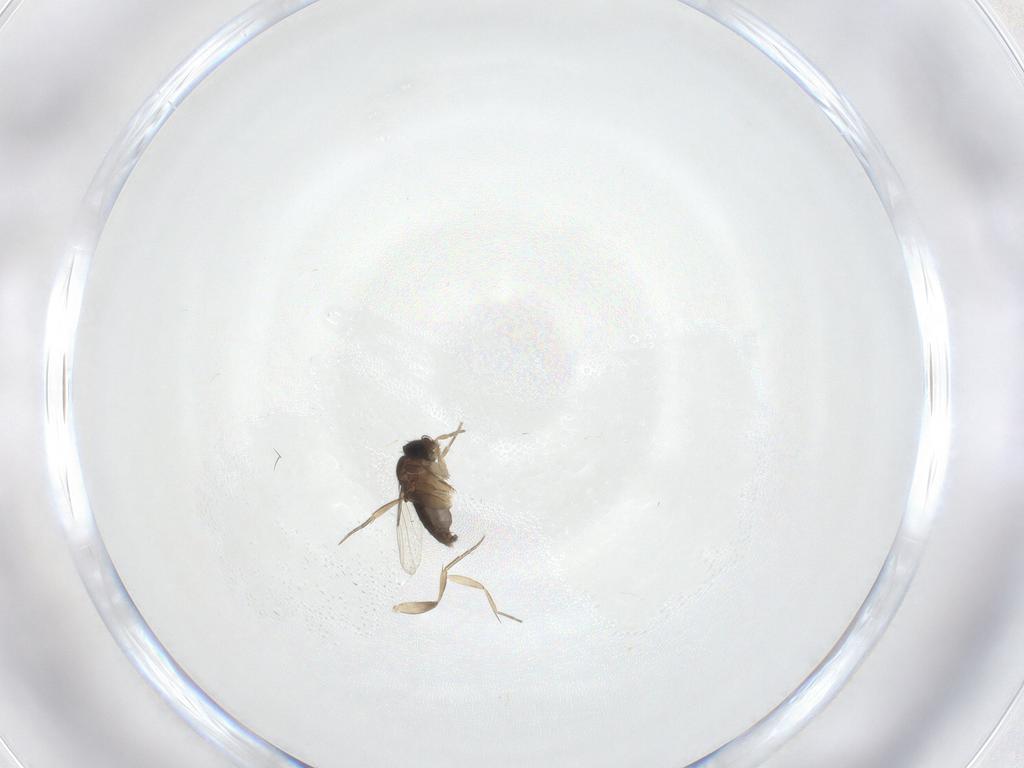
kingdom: Animalia
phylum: Arthropoda
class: Insecta
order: Diptera
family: Phoridae
